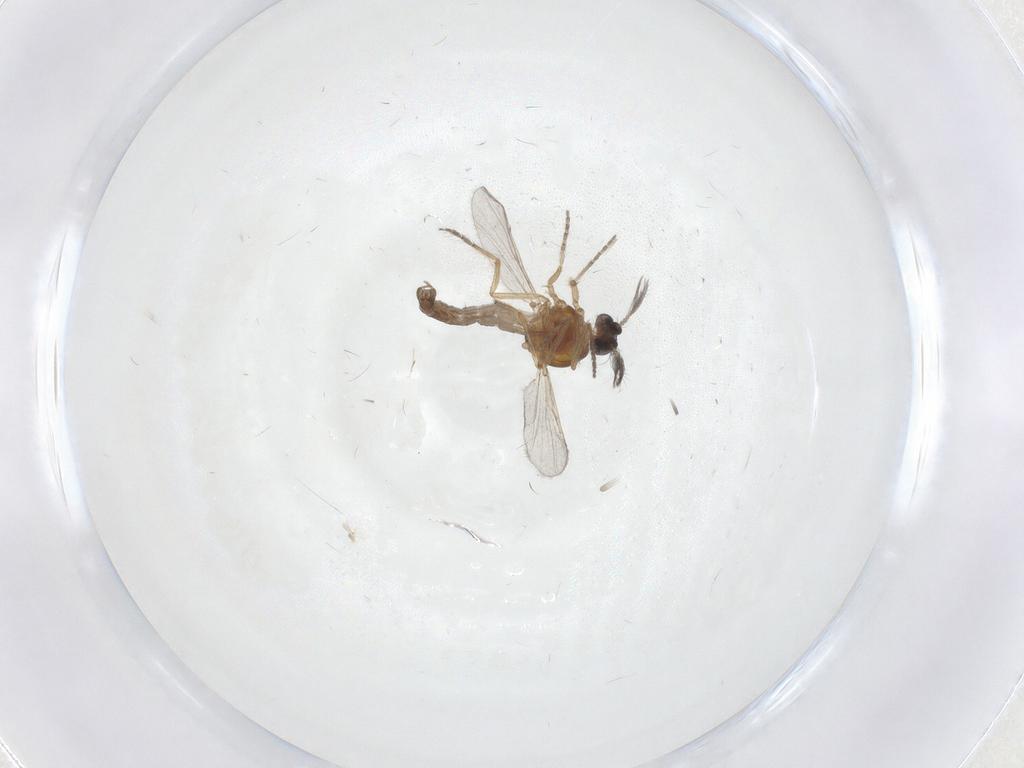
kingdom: Animalia
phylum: Arthropoda
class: Insecta
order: Diptera
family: Ceratopogonidae
